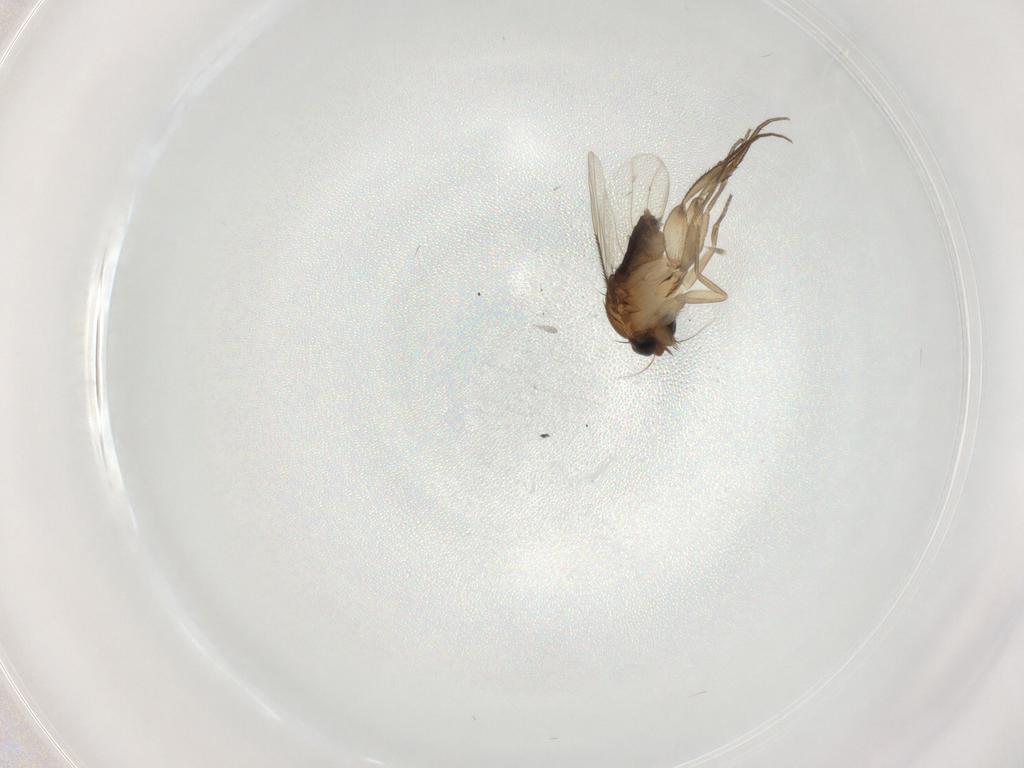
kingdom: Animalia
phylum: Arthropoda
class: Insecta
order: Diptera
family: Phoridae
